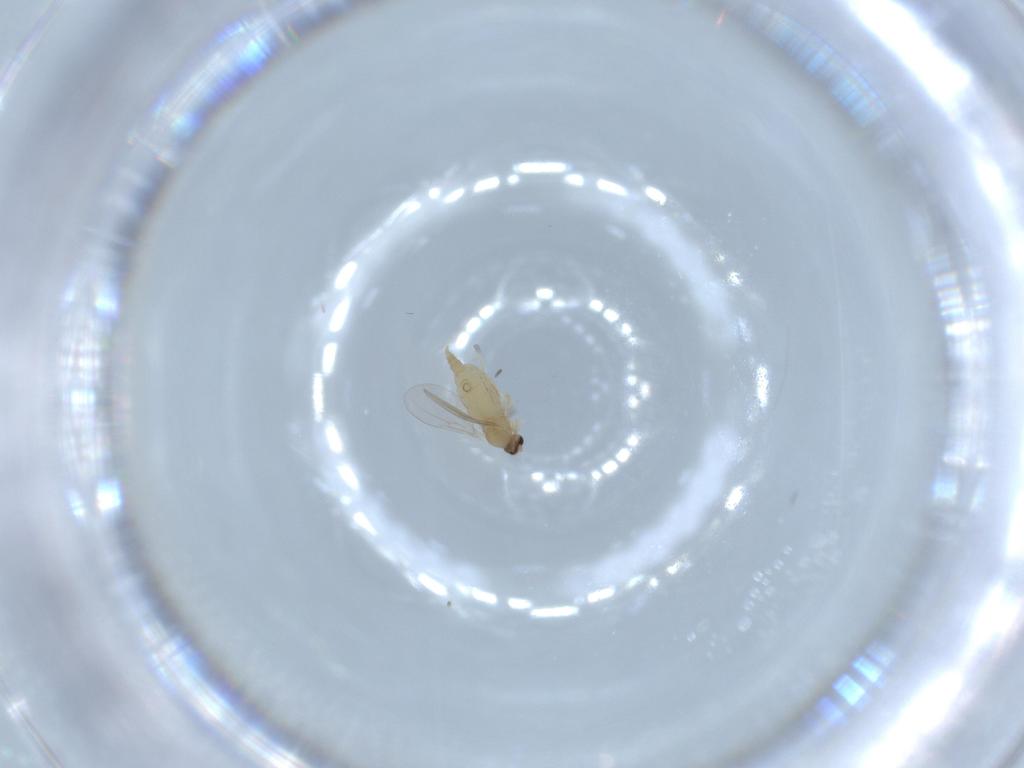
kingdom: Animalia
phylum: Arthropoda
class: Insecta
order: Diptera
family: Cecidomyiidae
